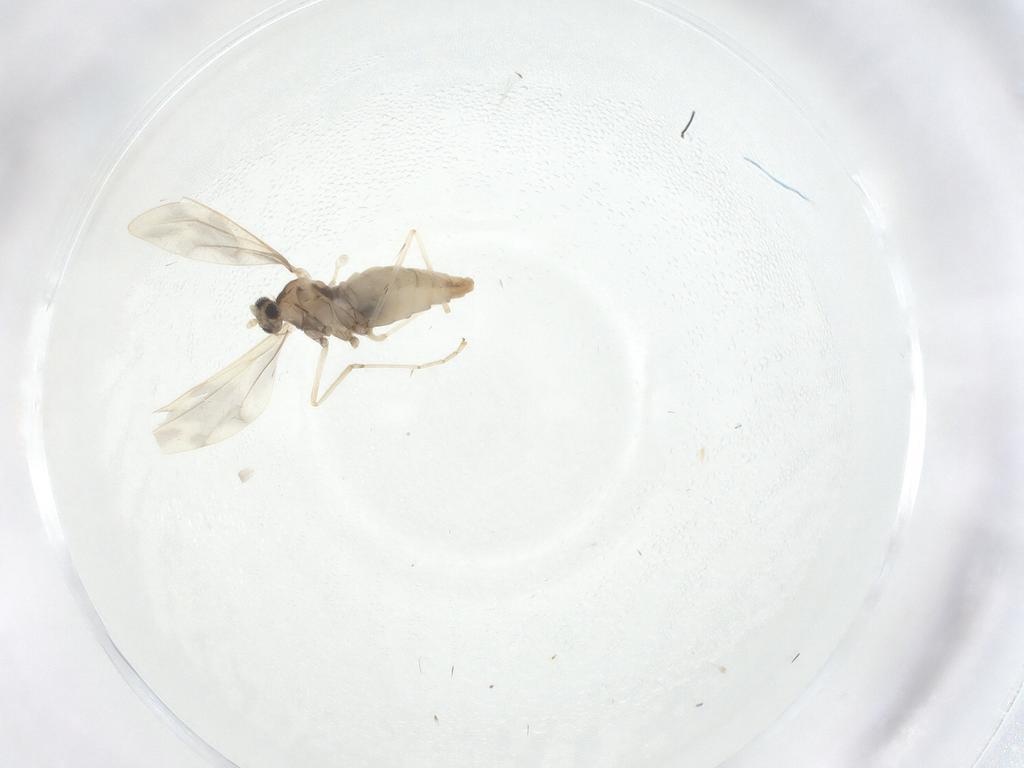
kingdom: Animalia
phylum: Arthropoda
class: Insecta
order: Diptera
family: Cecidomyiidae
